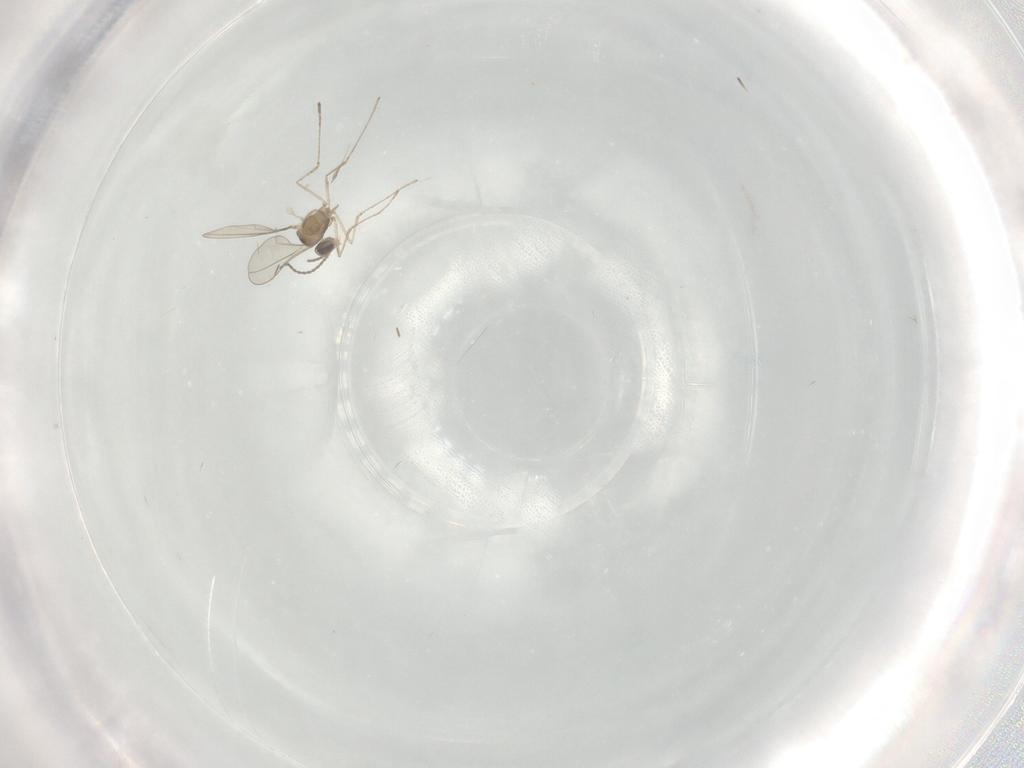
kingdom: Animalia
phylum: Arthropoda
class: Insecta
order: Diptera
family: Cecidomyiidae
